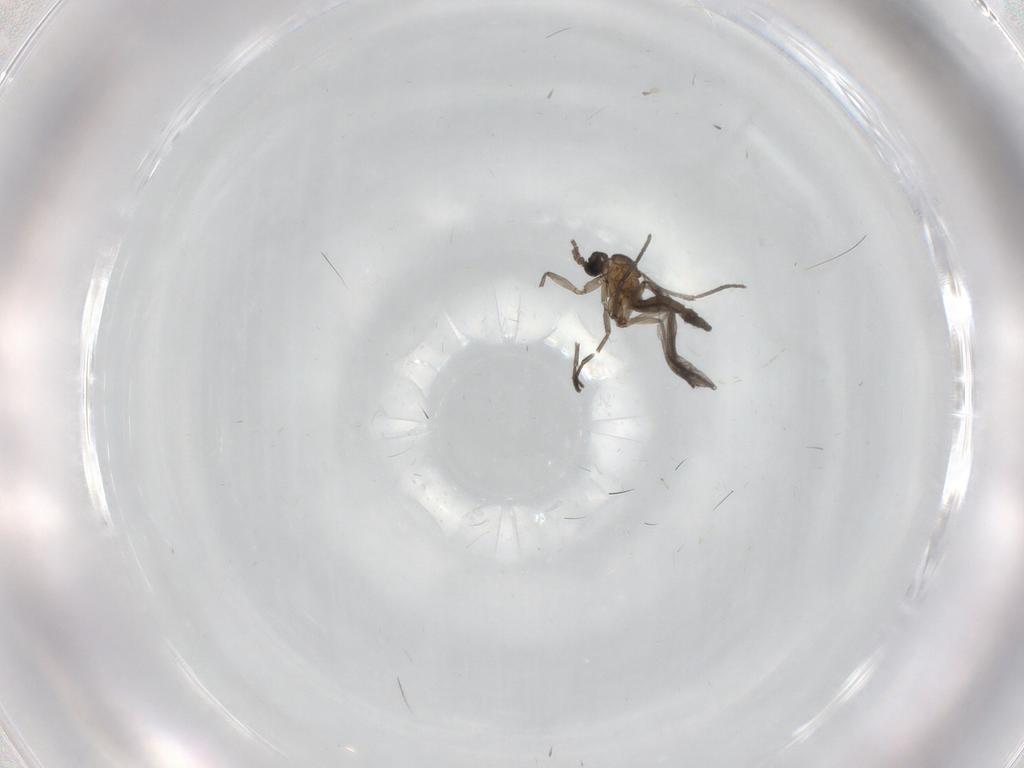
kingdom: Animalia
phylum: Arthropoda
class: Insecta
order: Diptera
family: Sciaridae
